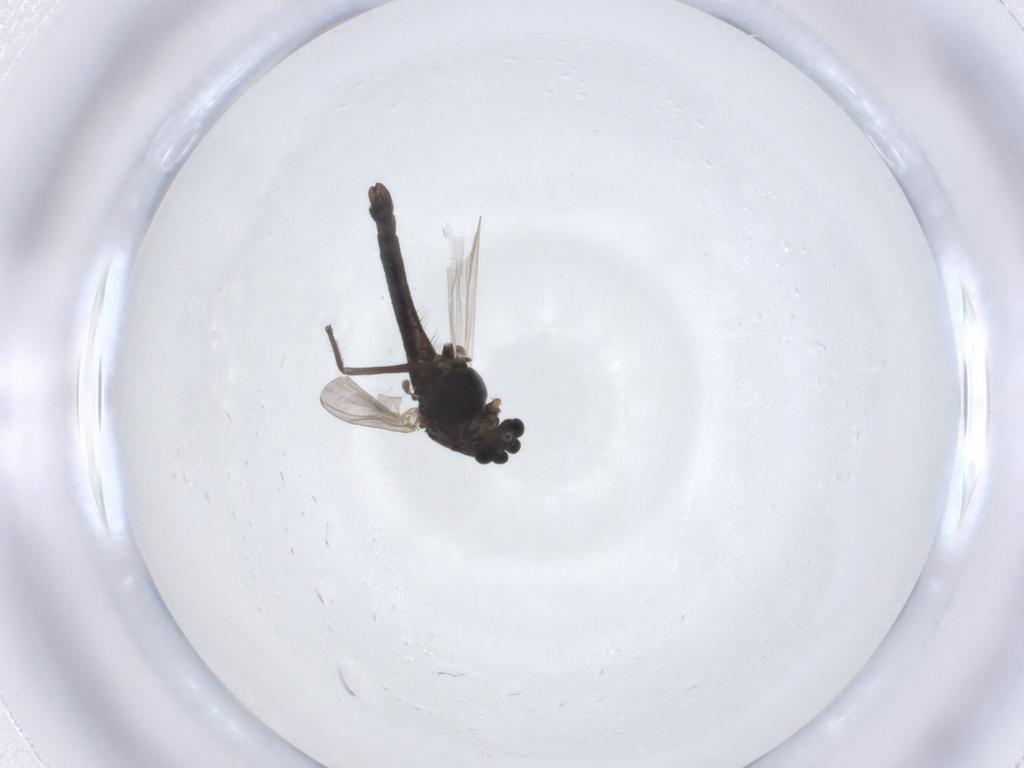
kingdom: Animalia
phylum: Arthropoda
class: Insecta
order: Diptera
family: Chironomidae
